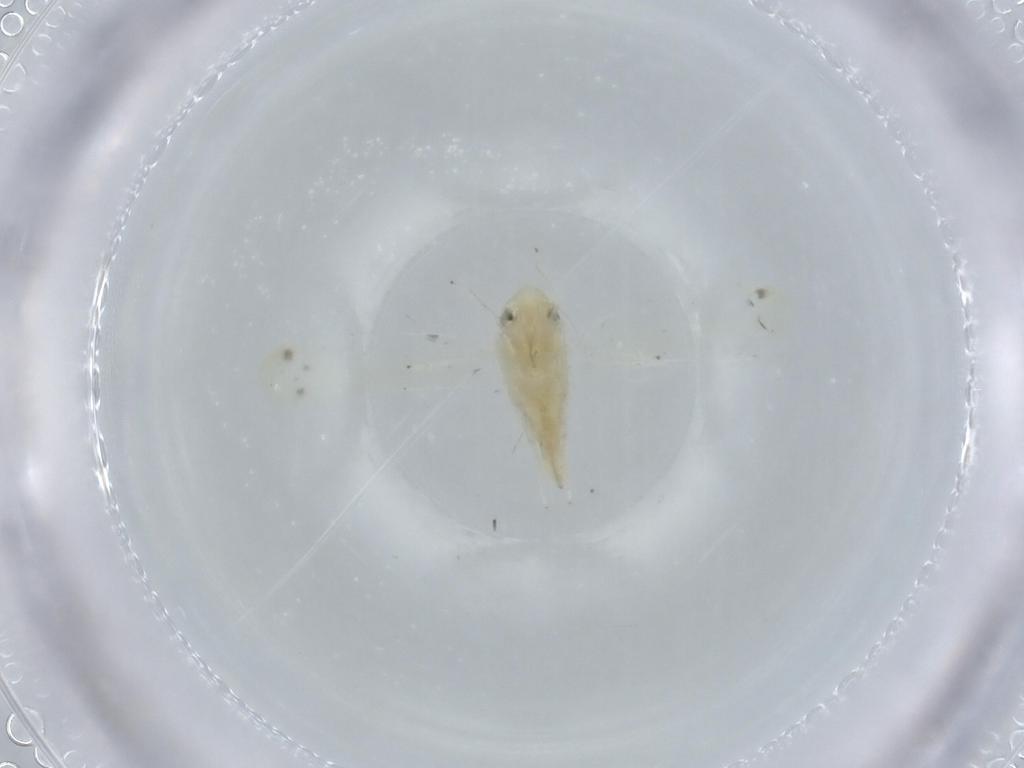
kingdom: Animalia
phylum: Arthropoda
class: Insecta
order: Hemiptera
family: Cicadellidae
